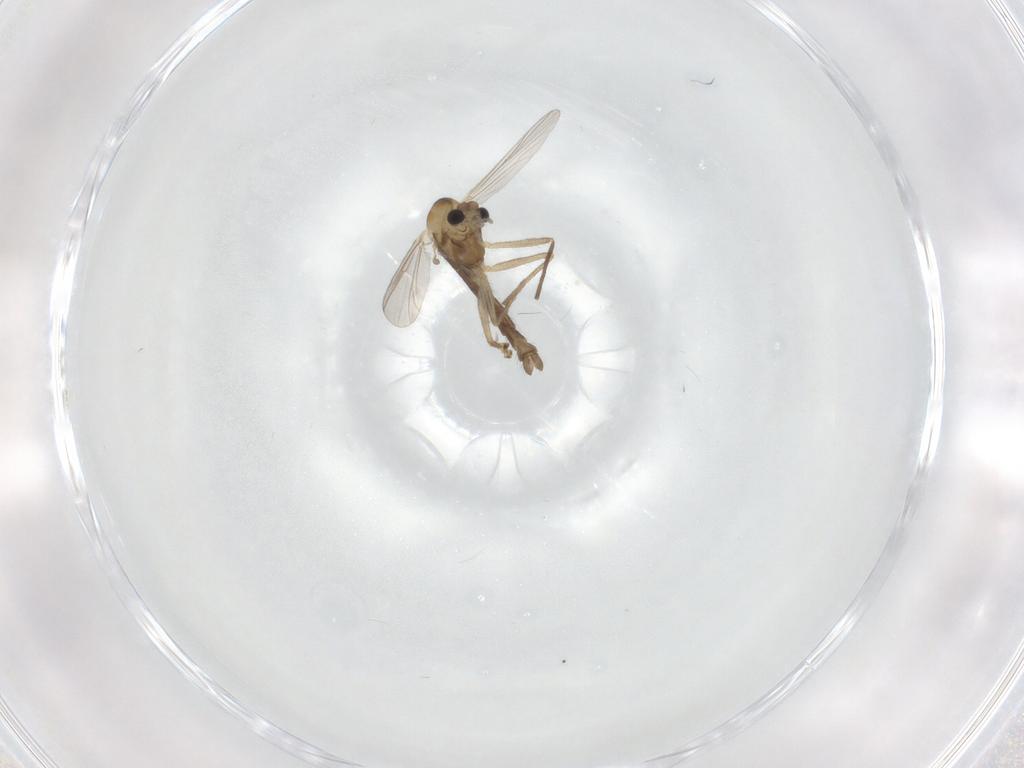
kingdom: Animalia
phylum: Arthropoda
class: Insecta
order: Diptera
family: Chironomidae
